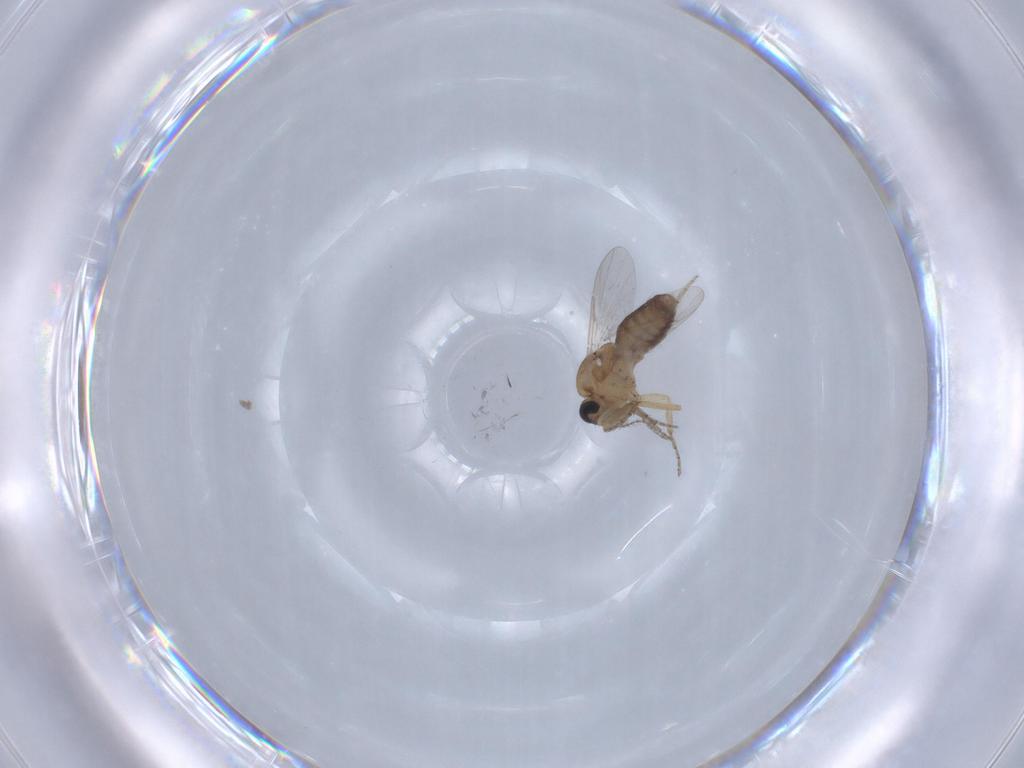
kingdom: Animalia
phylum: Arthropoda
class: Insecta
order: Diptera
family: Ceratopogonidae
